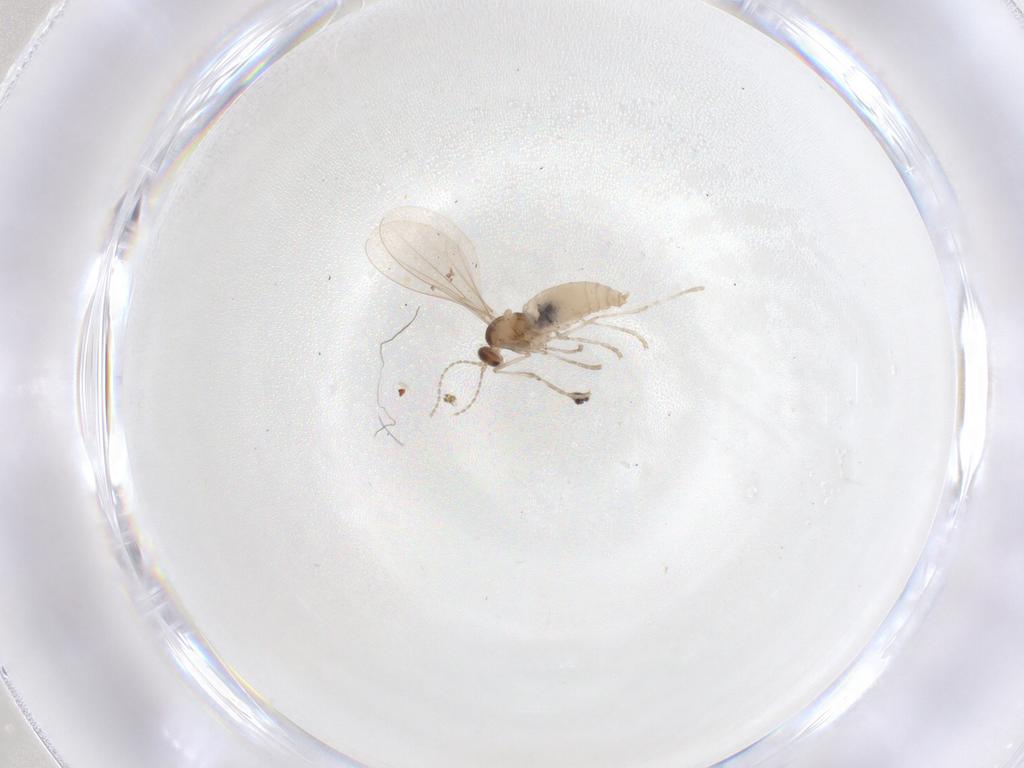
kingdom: Animalia
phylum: Arthropoda
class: Insecta
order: Diptera
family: Cecidomyiidae
